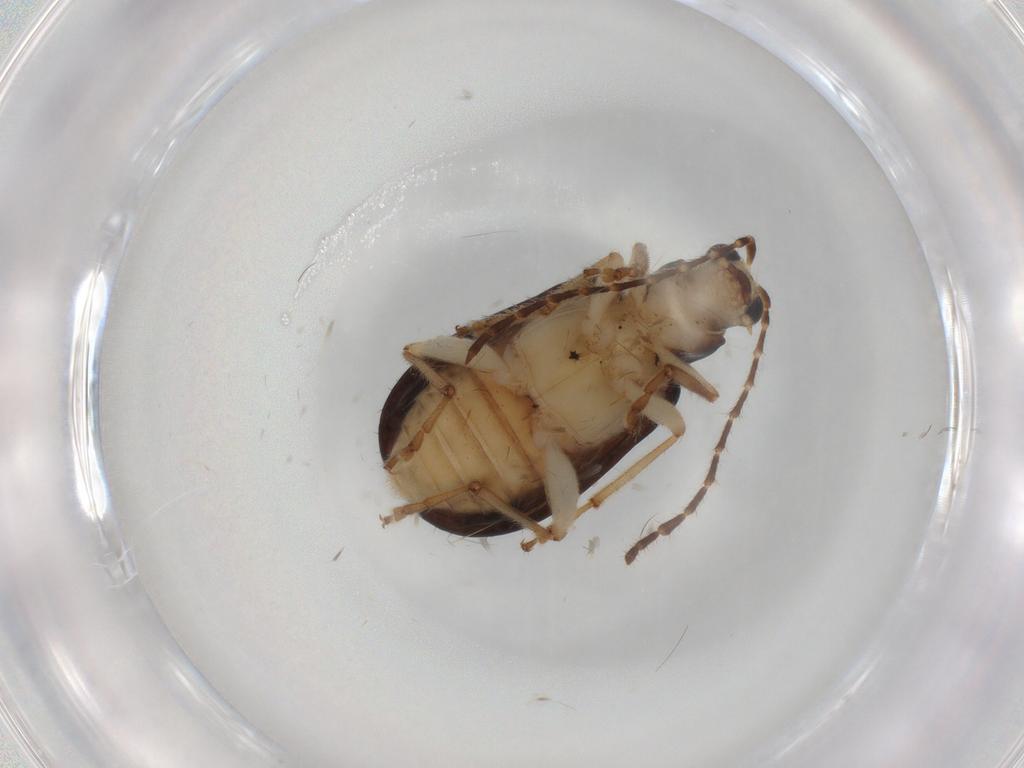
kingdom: Animalia
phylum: Arthropoda
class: Insecta
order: Coleoptera
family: Chrysomelidae
